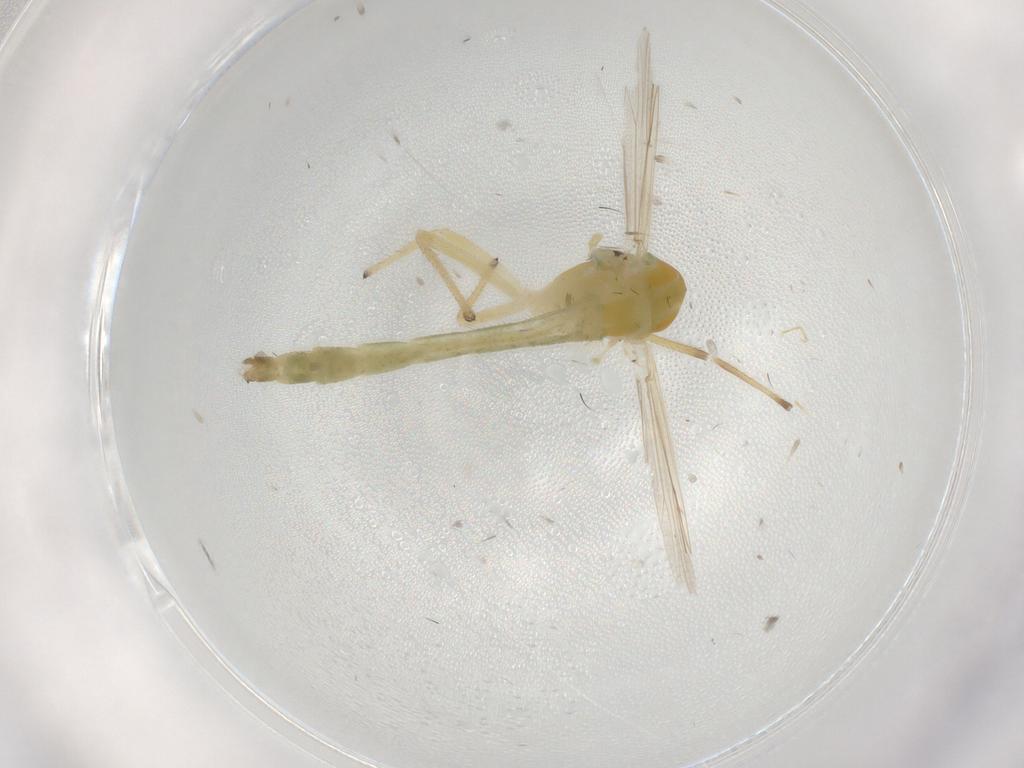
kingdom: Animalia
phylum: Arthropoda
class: Insecta
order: Diptera
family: Chironomidae
